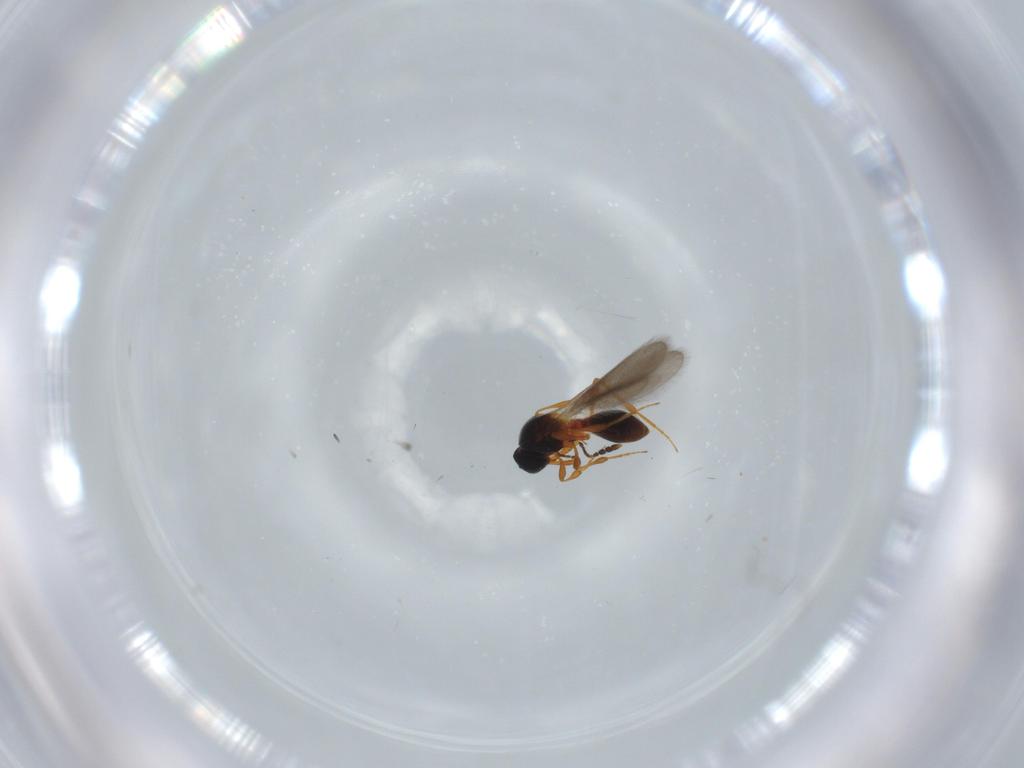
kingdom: Animalia
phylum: Arthropoda
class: Insecta
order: Hymenoptera
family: Platygastridae
